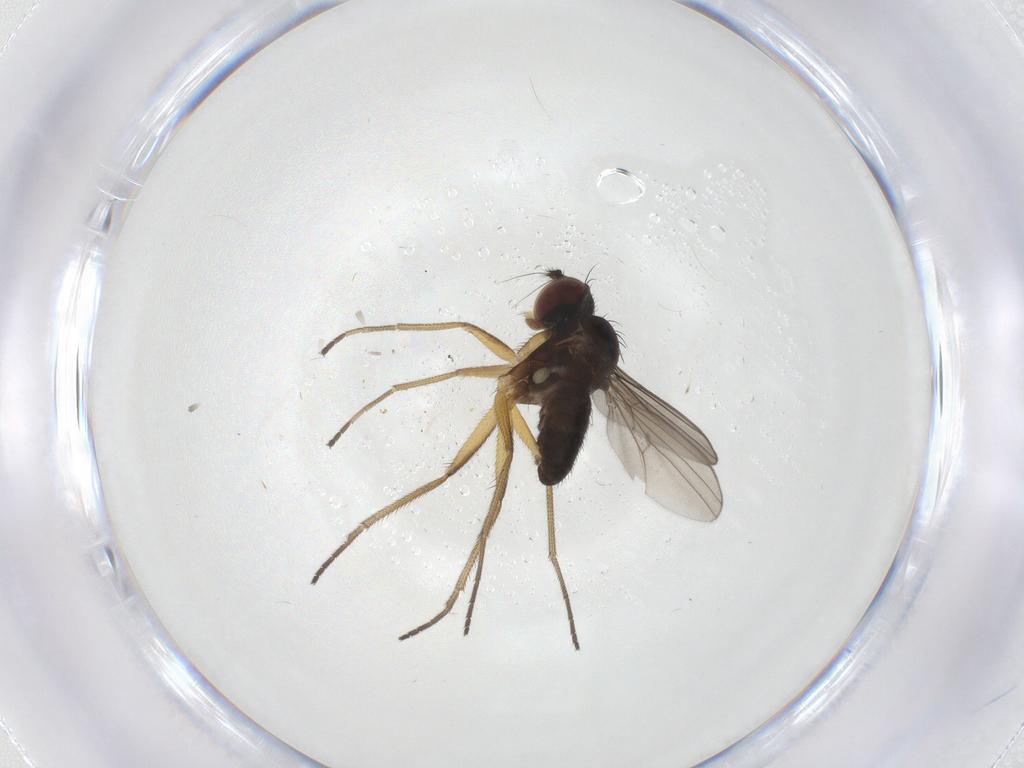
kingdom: Animalia
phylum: Arthropoda
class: Insecta
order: Diptera
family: Dolichopodidae
